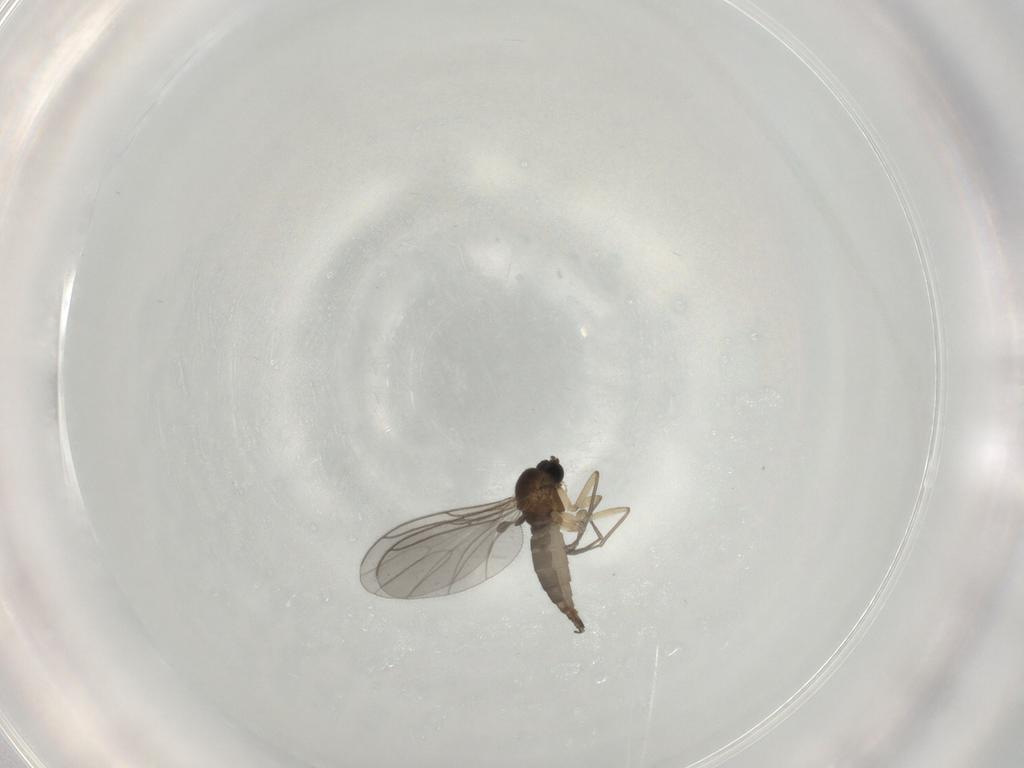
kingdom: Animalia
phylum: Arthropoda
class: Insecta
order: Diptera
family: Sciaridae
